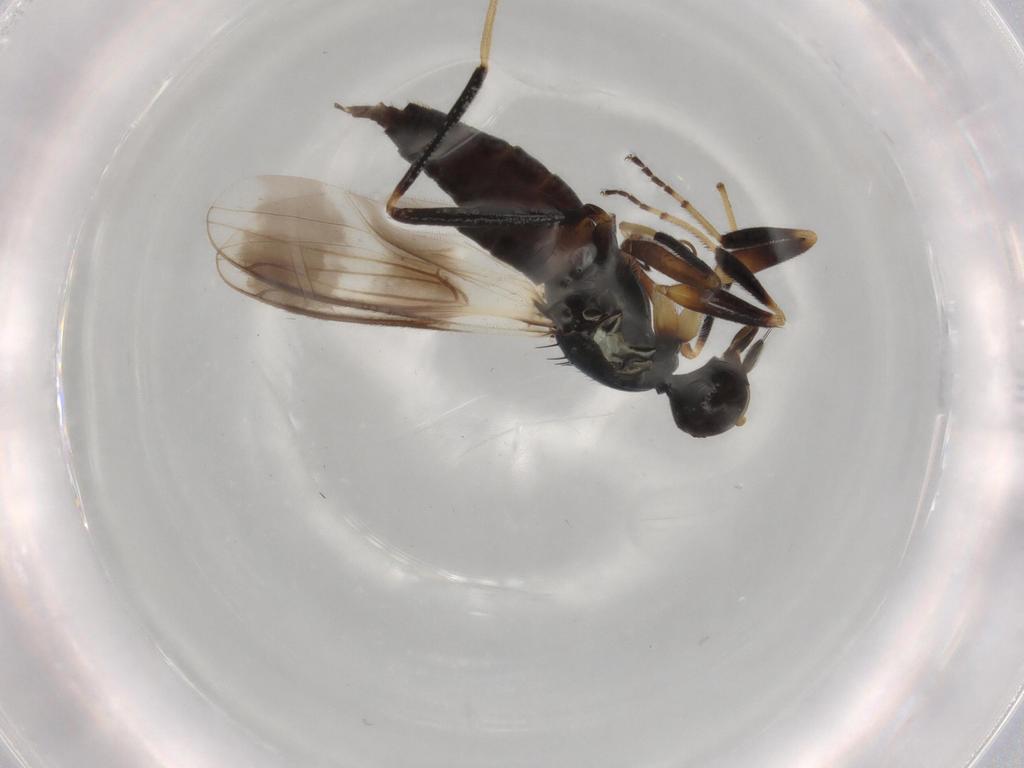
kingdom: Animalia
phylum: Arthropoda
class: Insecta
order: Diptera
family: Hybotidae
